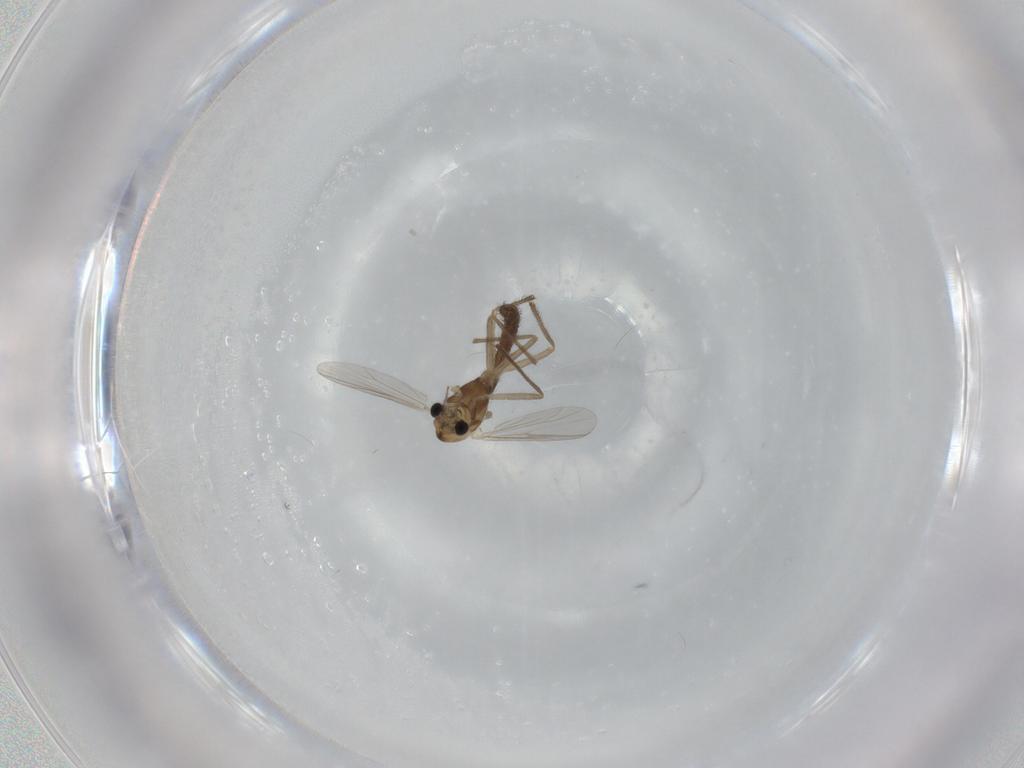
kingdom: Animalia
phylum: Arthropoda
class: Insecta
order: Diptera
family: Chironomidae
